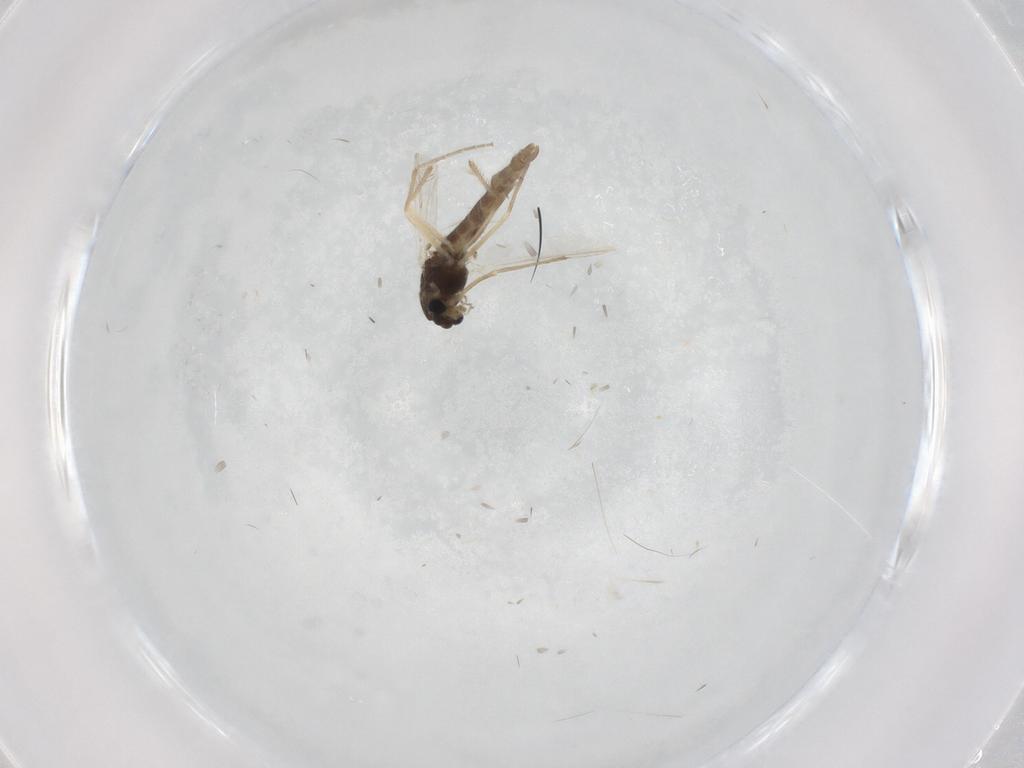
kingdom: Animalia
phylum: Arthropoda
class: Insecta
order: Diptera
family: Chironomidae
